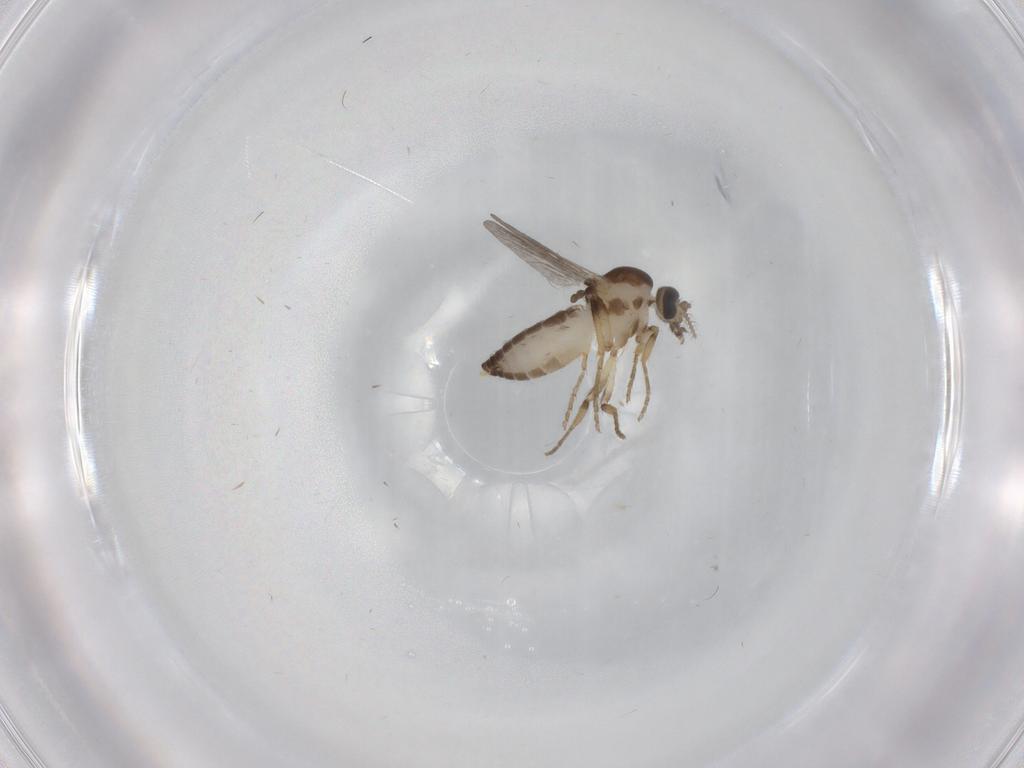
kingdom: Animalia
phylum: Arthropoda
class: Insecta
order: Diptera
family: Ceratopogonidae
